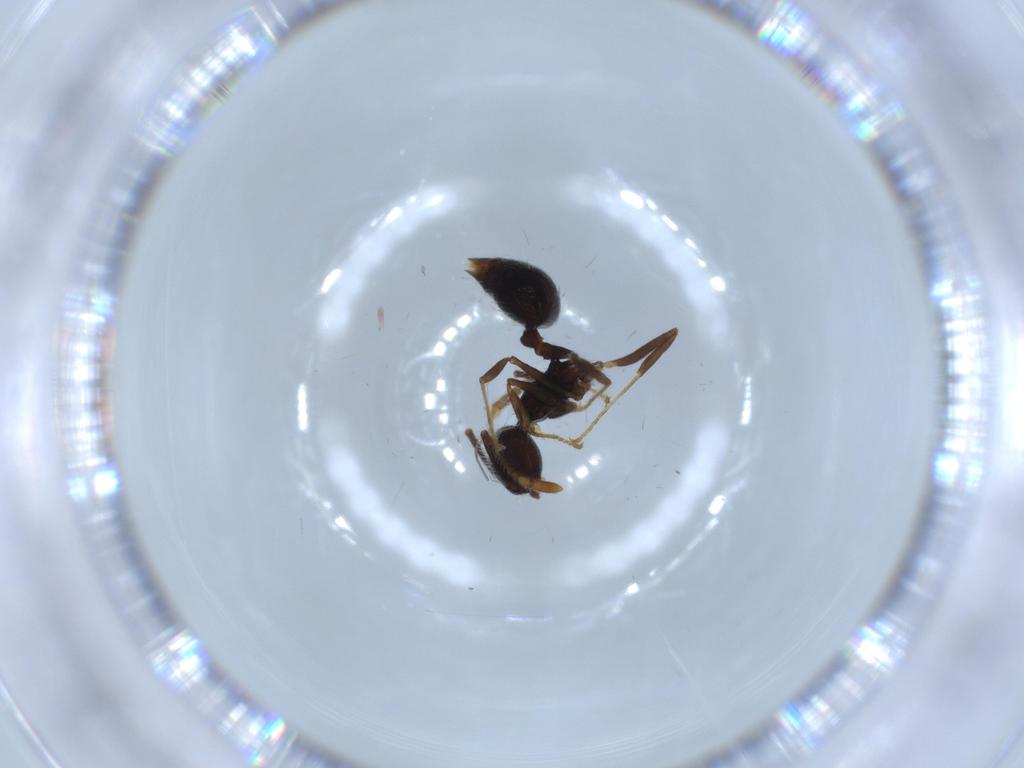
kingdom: Animalia
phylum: Arthropoda
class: Insecta
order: Hymenoptera
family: Formicidae
